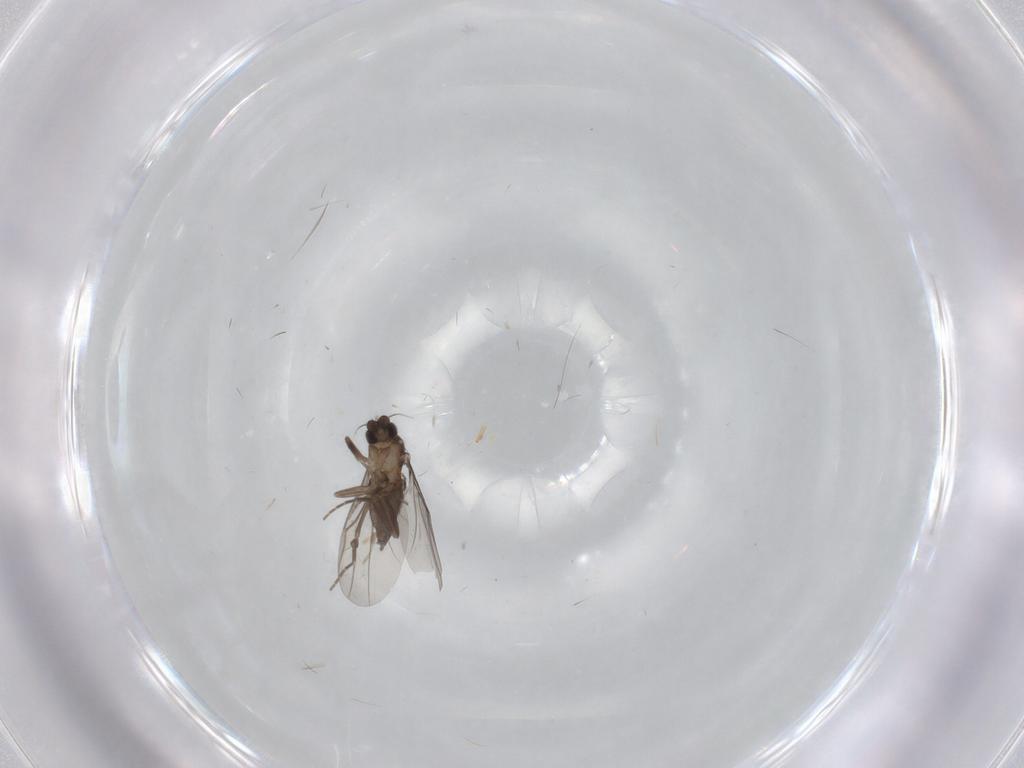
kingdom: Animalia
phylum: Arthropoda
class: Insecta
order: Diptera
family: Phoridae
